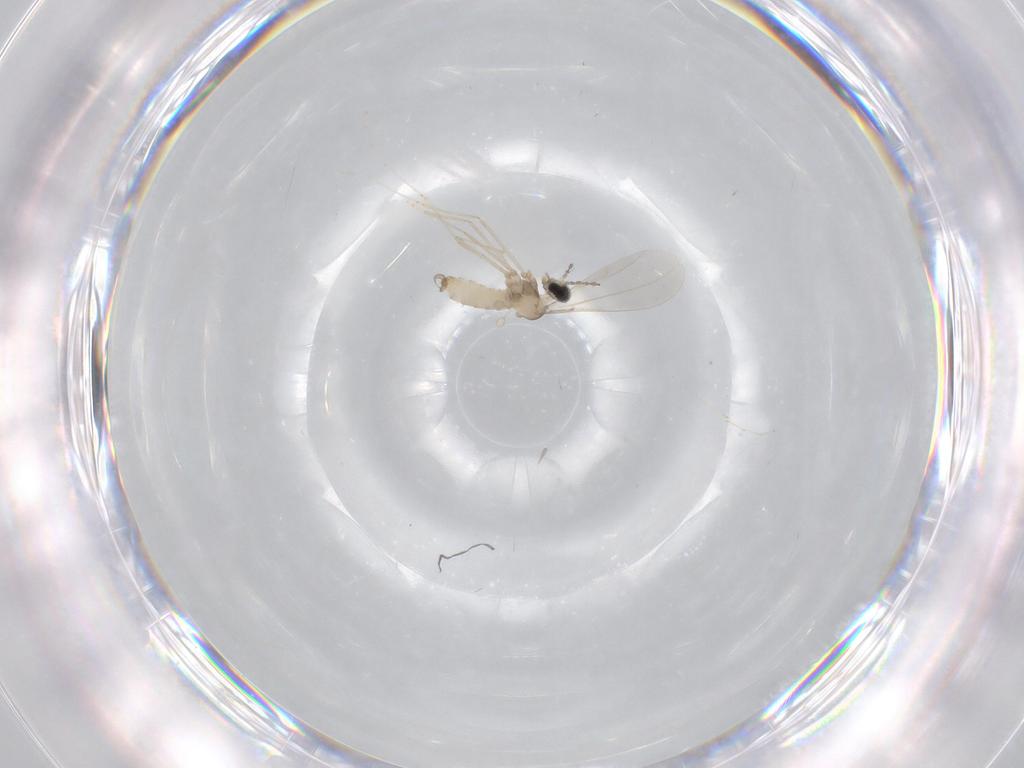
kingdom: Animalia
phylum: Arthropoda
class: Insecta
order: Diptera
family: Cecidomyiidae
